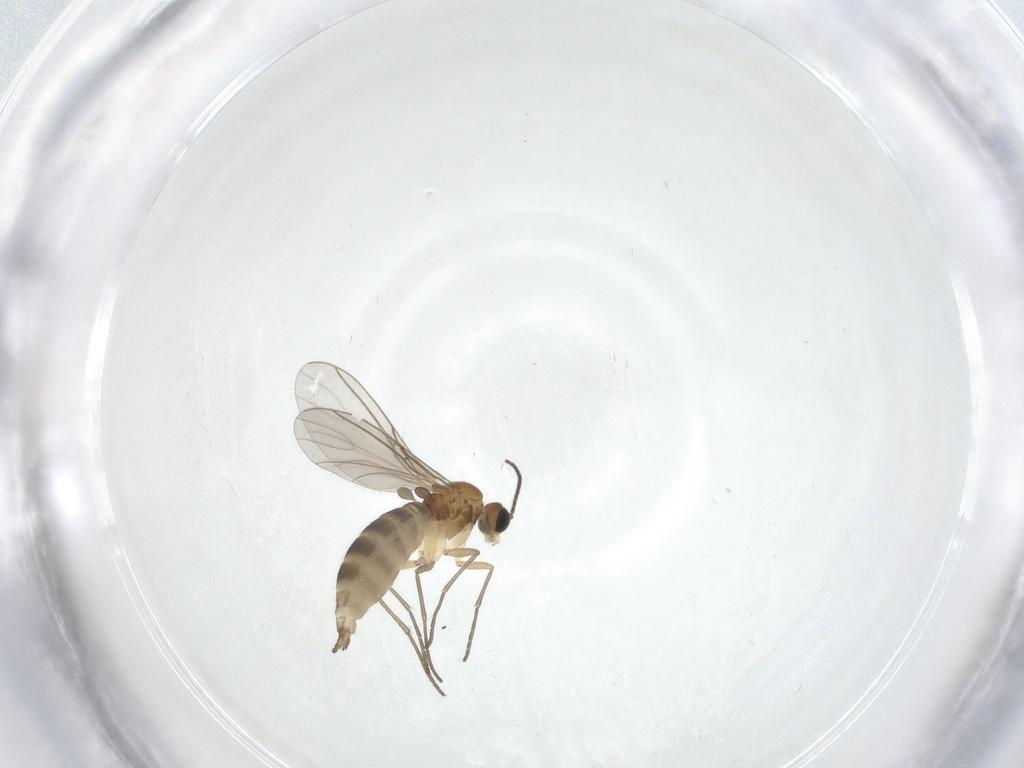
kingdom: Animalia
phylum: Arthropoda
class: Insecta
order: Diptera
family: Sciaridae
